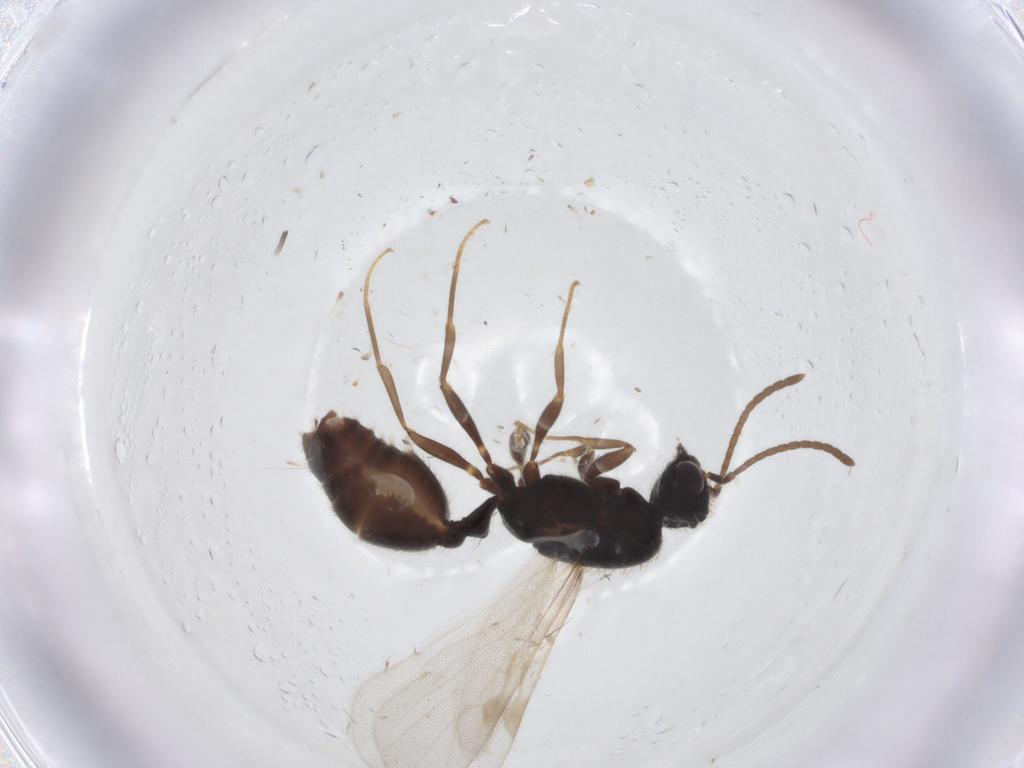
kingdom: Animalia
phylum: Arthropoda
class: Insecta
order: Hymenoptera
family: Formicidae
